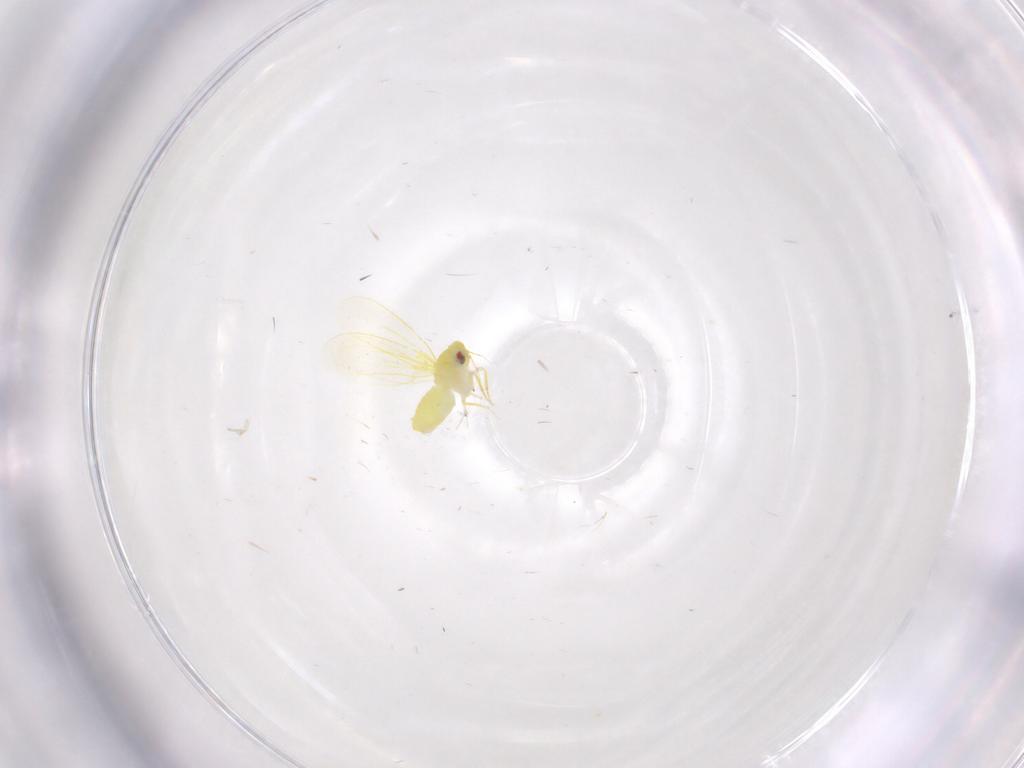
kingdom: Animalia
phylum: Arthropoda
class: Insecta
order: Hemiptera
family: Aleyrodidae
